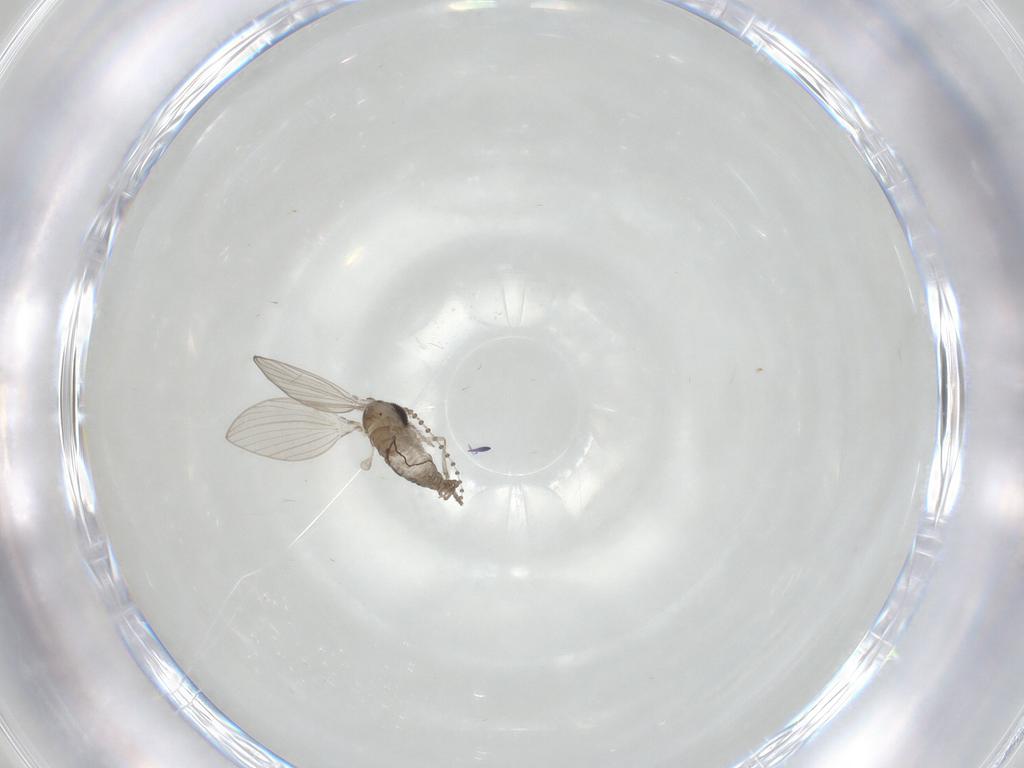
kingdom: Animalia
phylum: Arthropoda
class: Insecta
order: Diptera
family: Psychodidae
